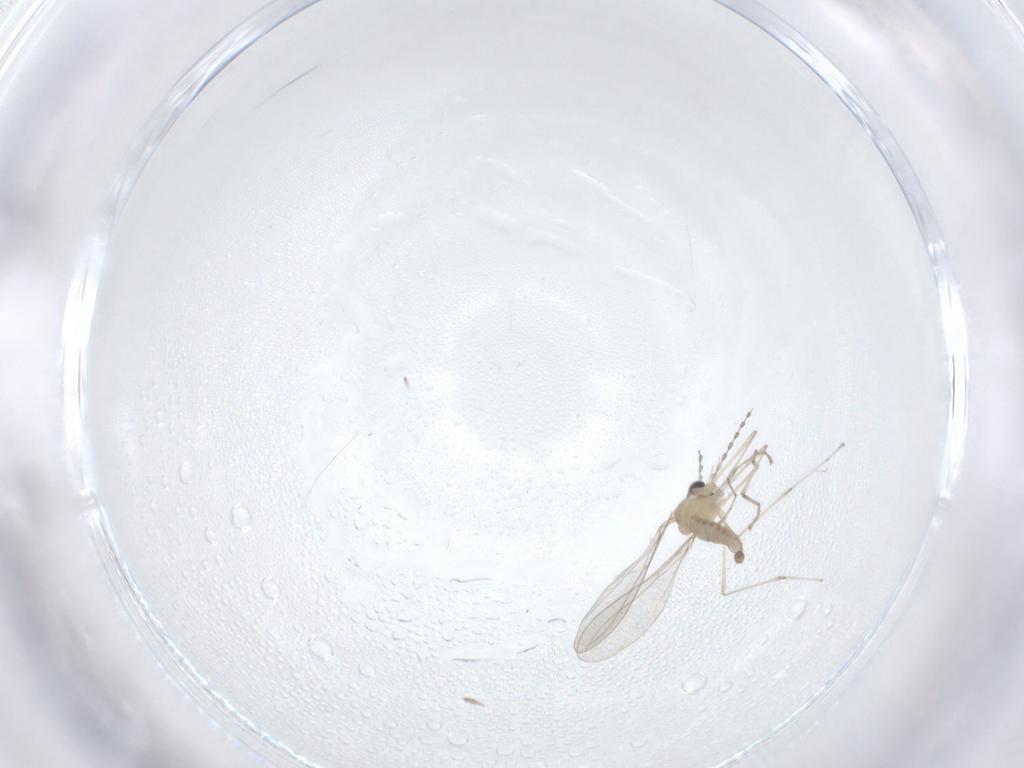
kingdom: Animalia
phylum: Arthropoda
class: Insecta
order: Diptera
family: Cecidomyiidae
